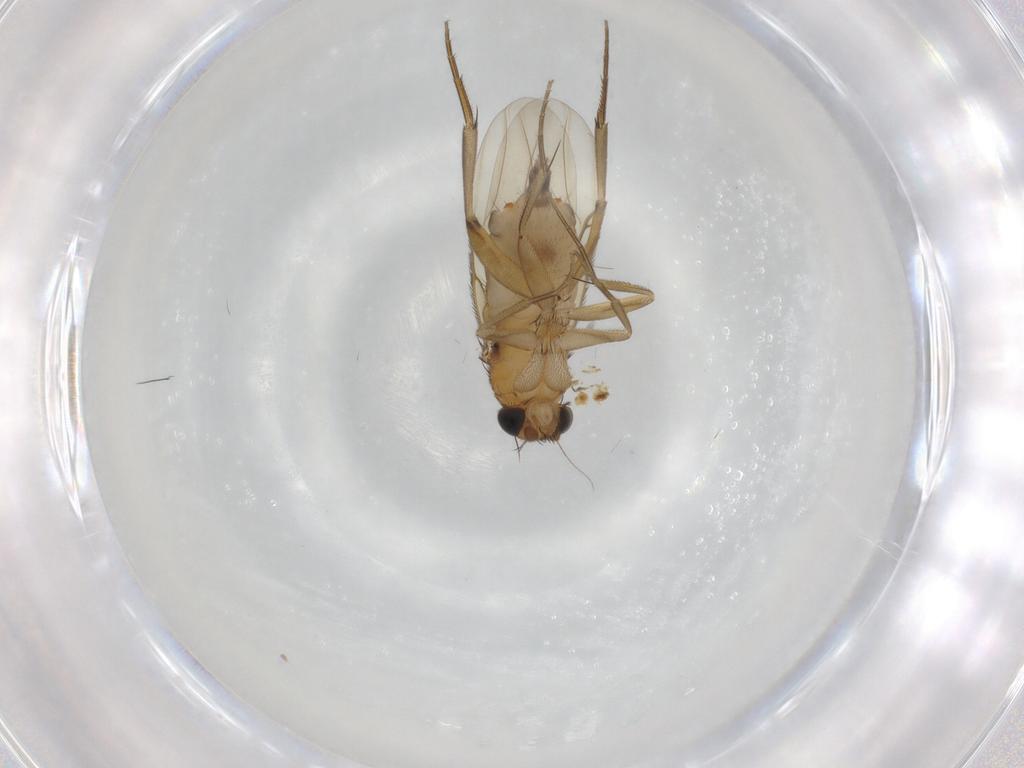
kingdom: Animalia
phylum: Arthropoda
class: Insecta
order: Diptera
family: Phoridae
